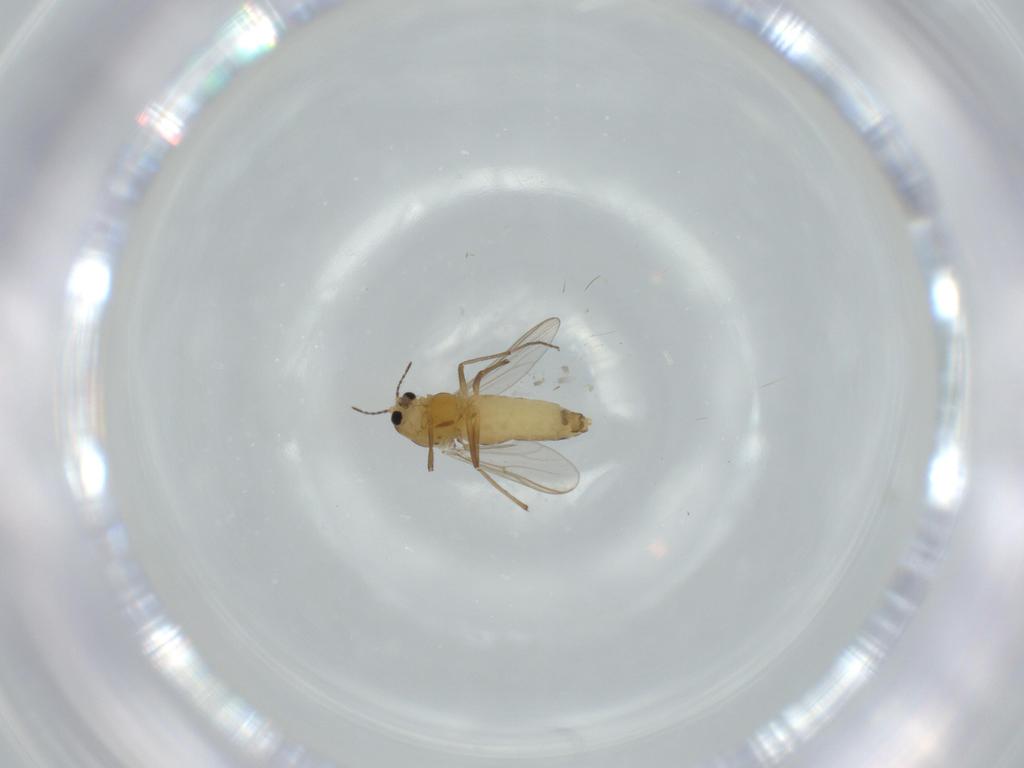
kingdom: Animalia
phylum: Arthropoda
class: Insecta
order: Diptera
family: Chironomidae
